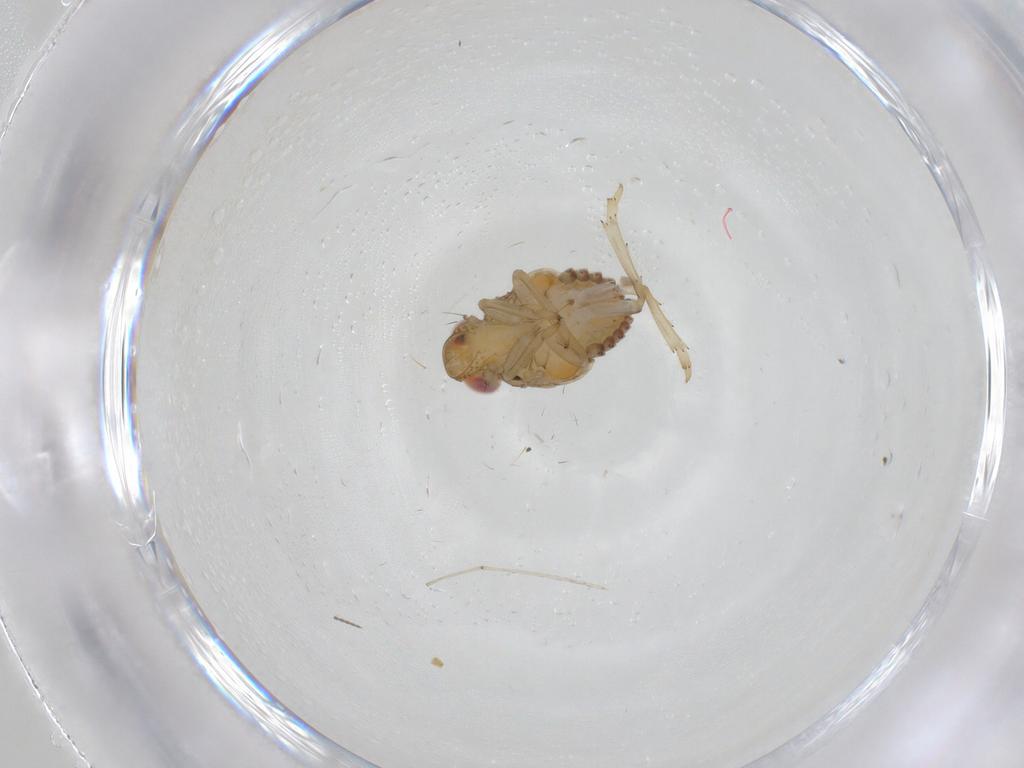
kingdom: Animalia
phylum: Arthropoda
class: Insecta
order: Hemiptera
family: Issidae
